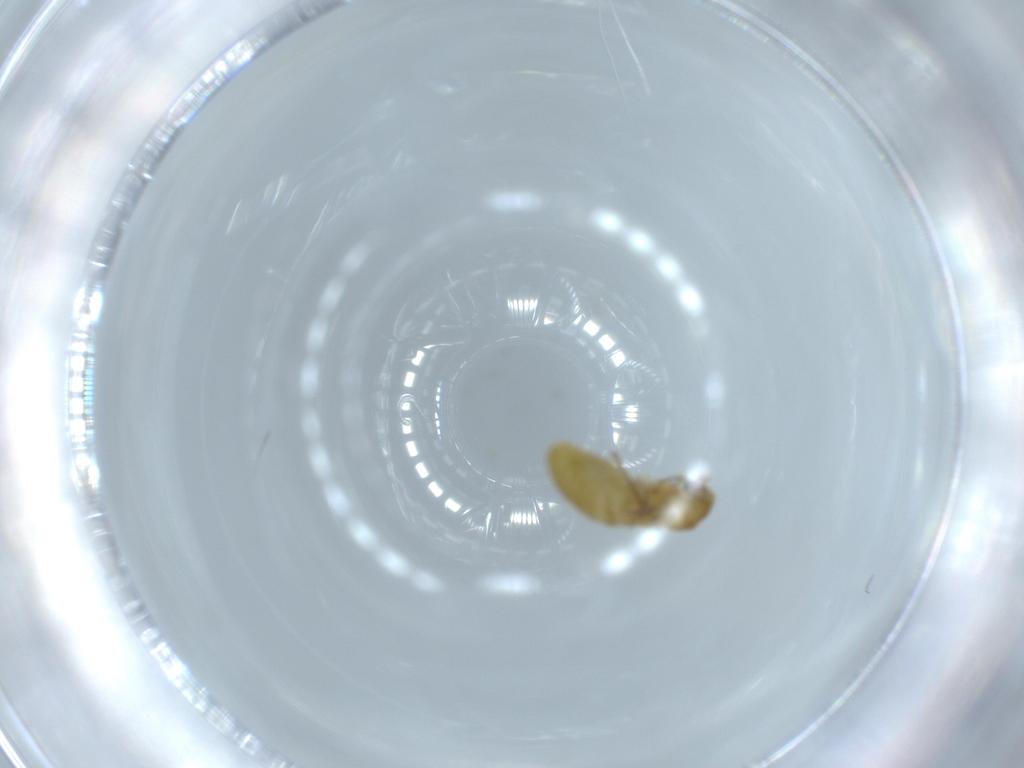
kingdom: Animalia
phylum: Arthropoda
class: Insecta
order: Diptera
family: Chironomidae
